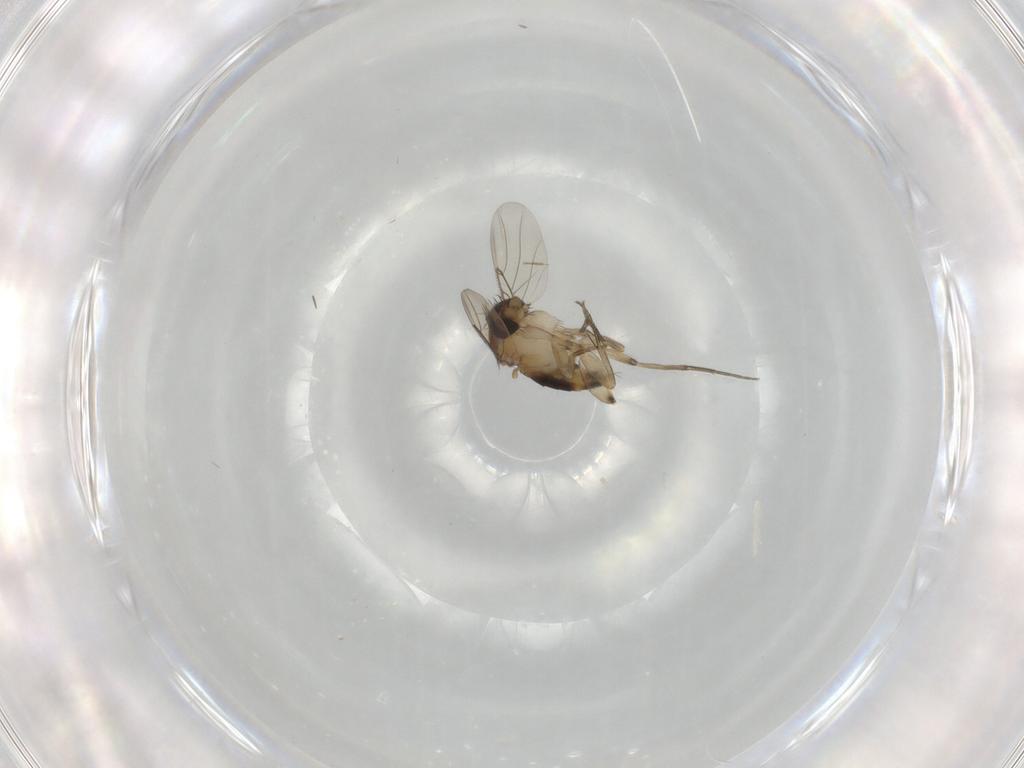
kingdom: Animalia
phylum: Arthropoda
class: Insecta
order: Diptera
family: Phoridae
